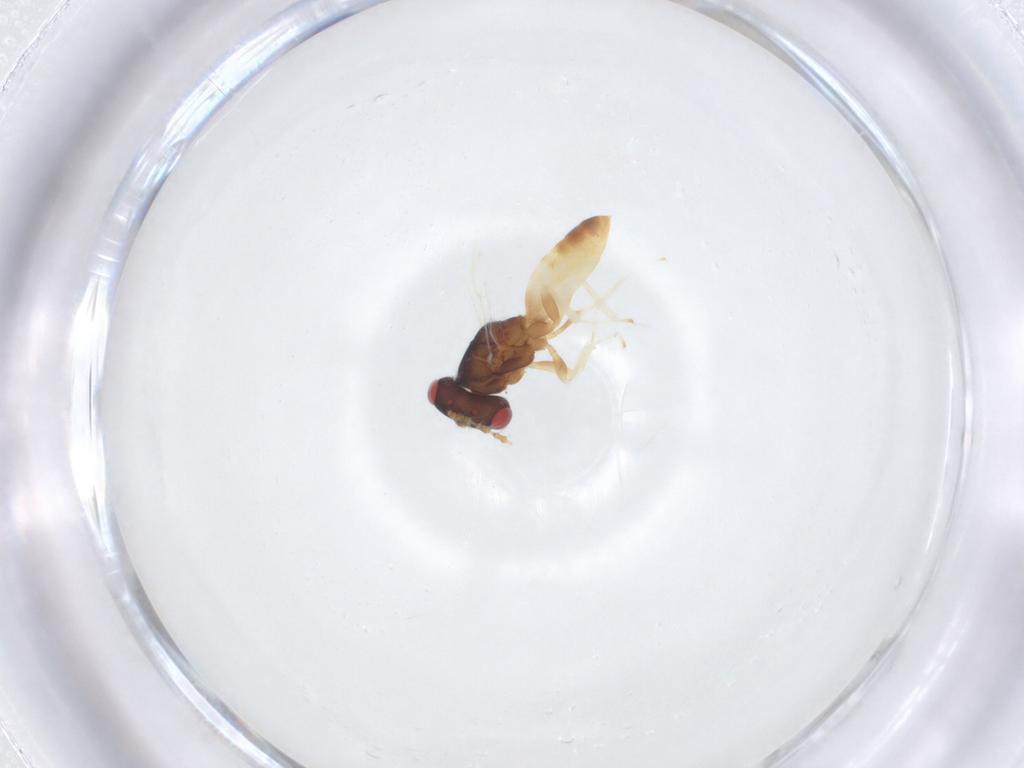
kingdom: Animalia
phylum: Arthropoda
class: Insecta
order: Hymenoptera
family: Pteromalidae
